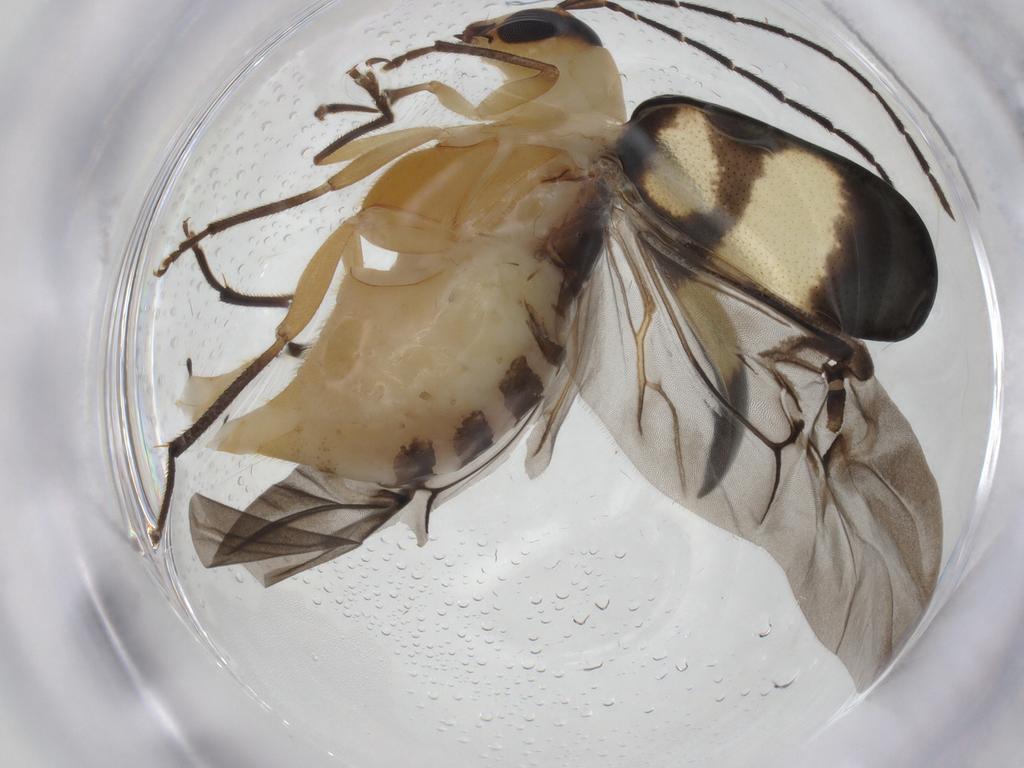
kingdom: Animalia
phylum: Arthropoda
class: Insecta
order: Coleoptera
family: Chrysomelidae
